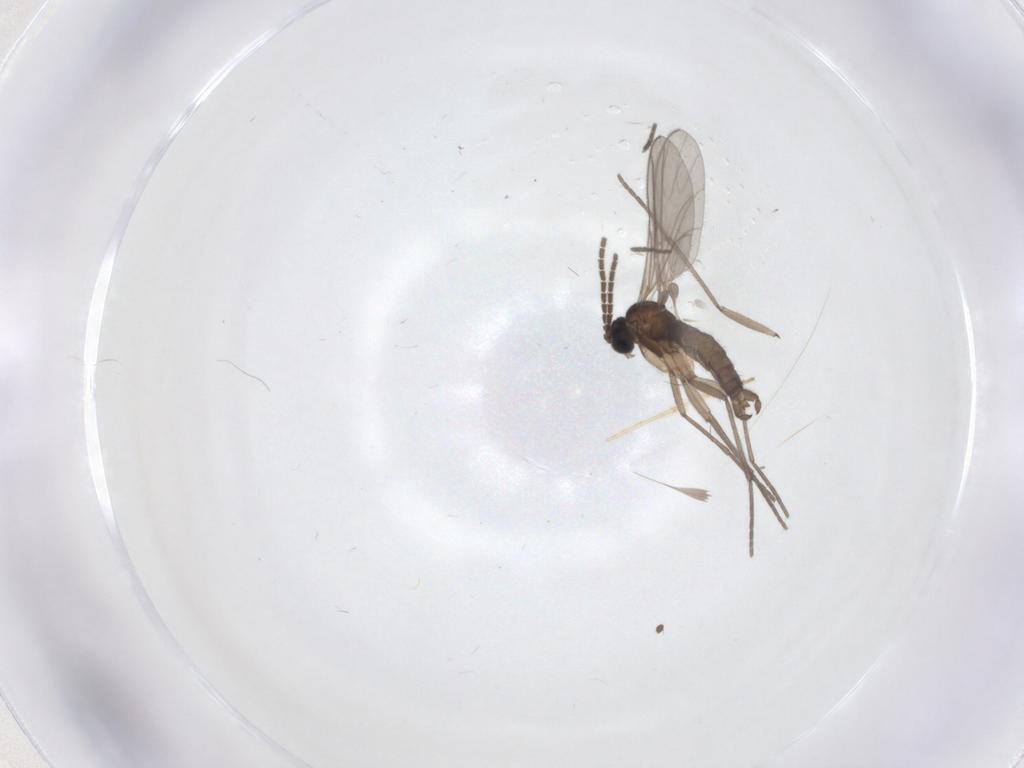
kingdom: Animalia
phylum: Arthropoda
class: Insecta
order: Diptera
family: Sciaridae
